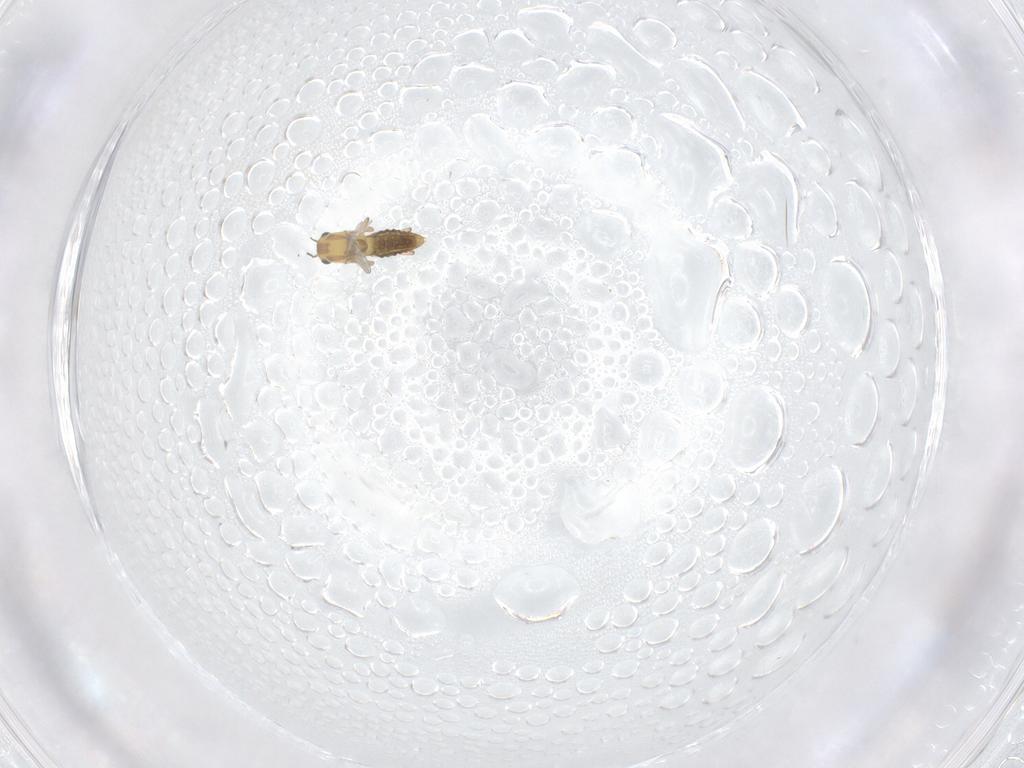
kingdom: Animalia
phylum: Arthropoda
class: Insecta
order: Diptera
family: Chironomidae
